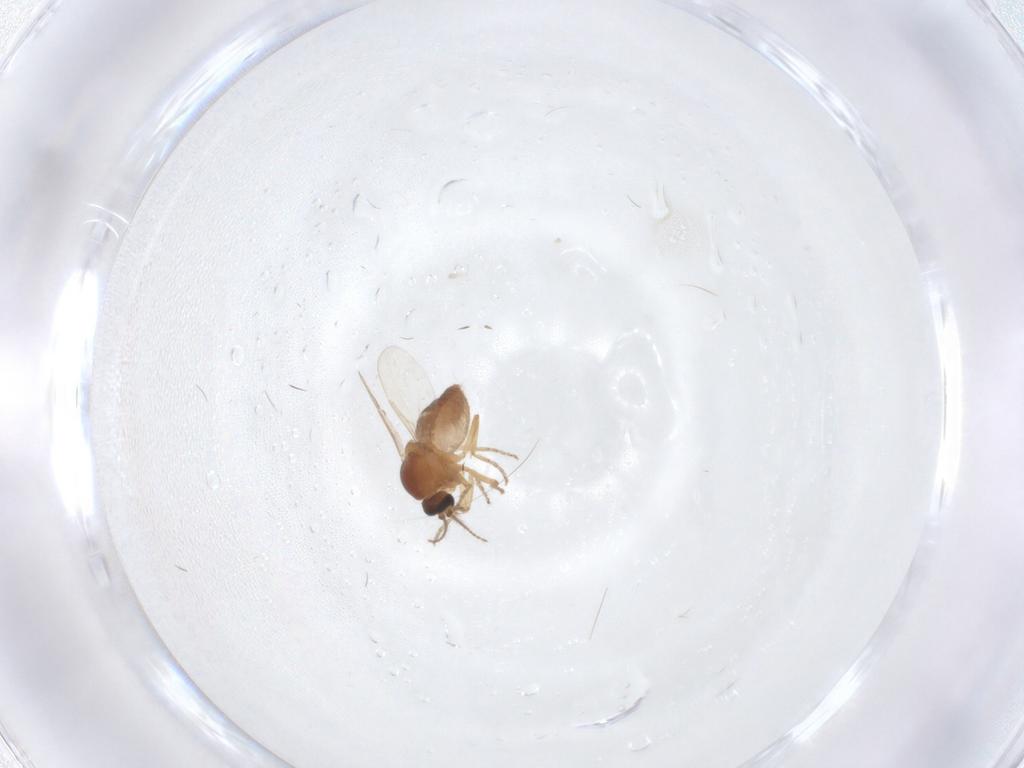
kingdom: Animalia
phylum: Arthropoda
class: Insecta
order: Diptera
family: Ceratopogonidae
